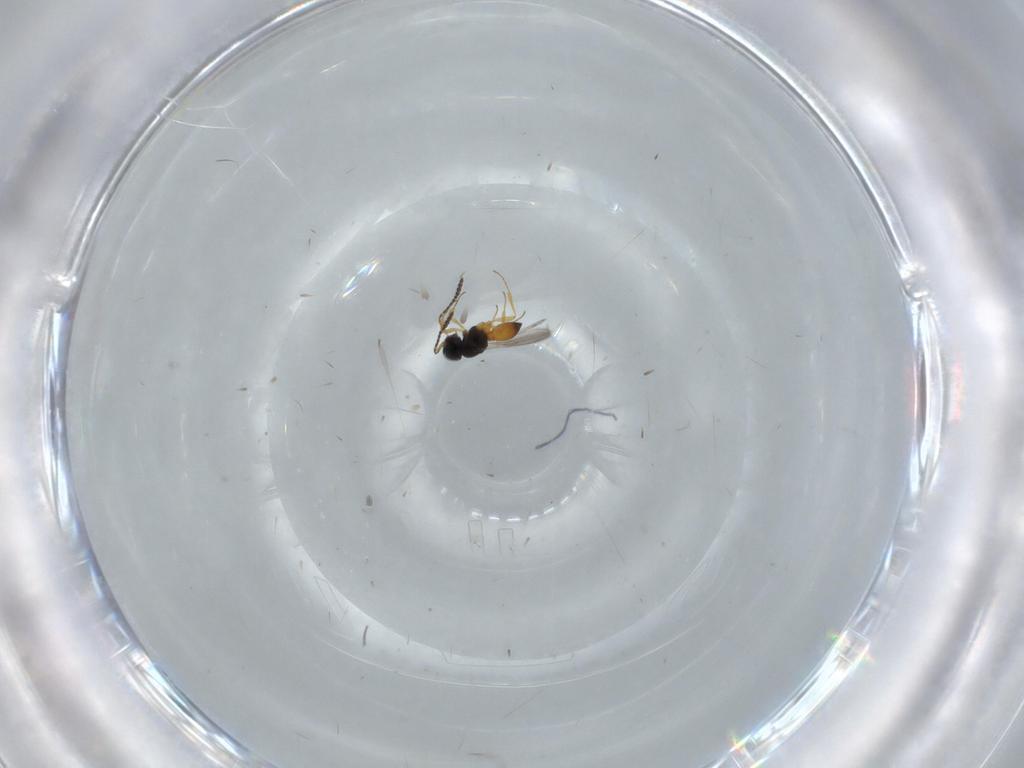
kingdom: Animalia
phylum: Arthropoda
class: Insecta
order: Hymenoptera
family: Scelionidae
